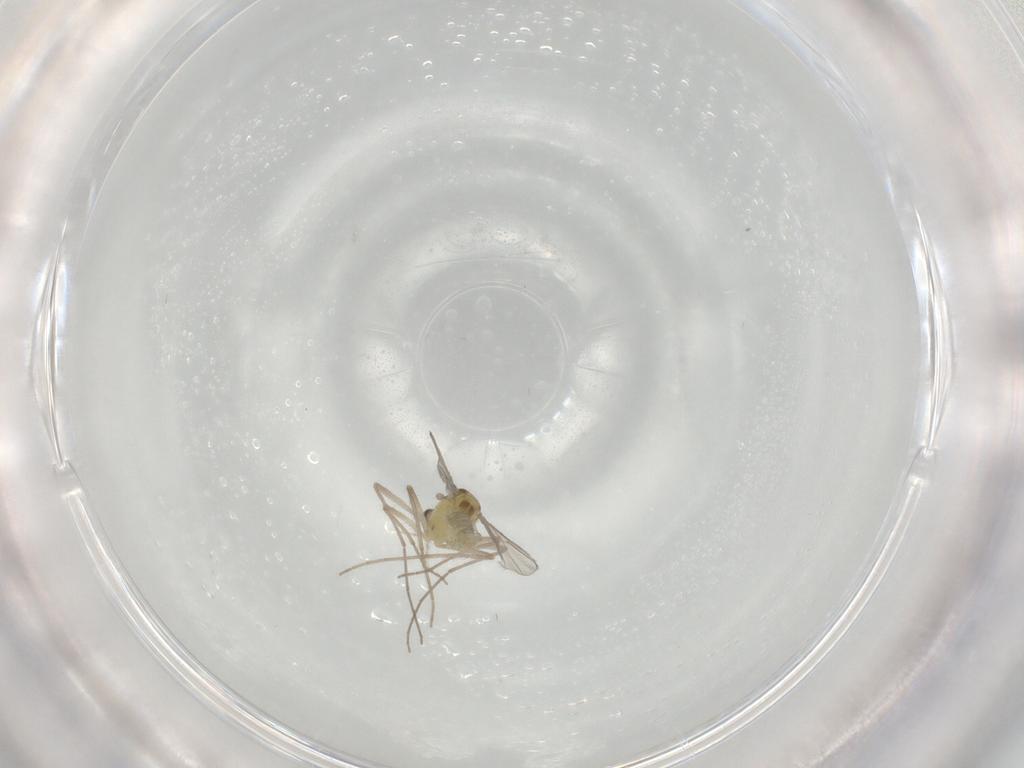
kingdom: Animalia
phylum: Arthropoda
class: Insecta
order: Diptera
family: Chironomidae
